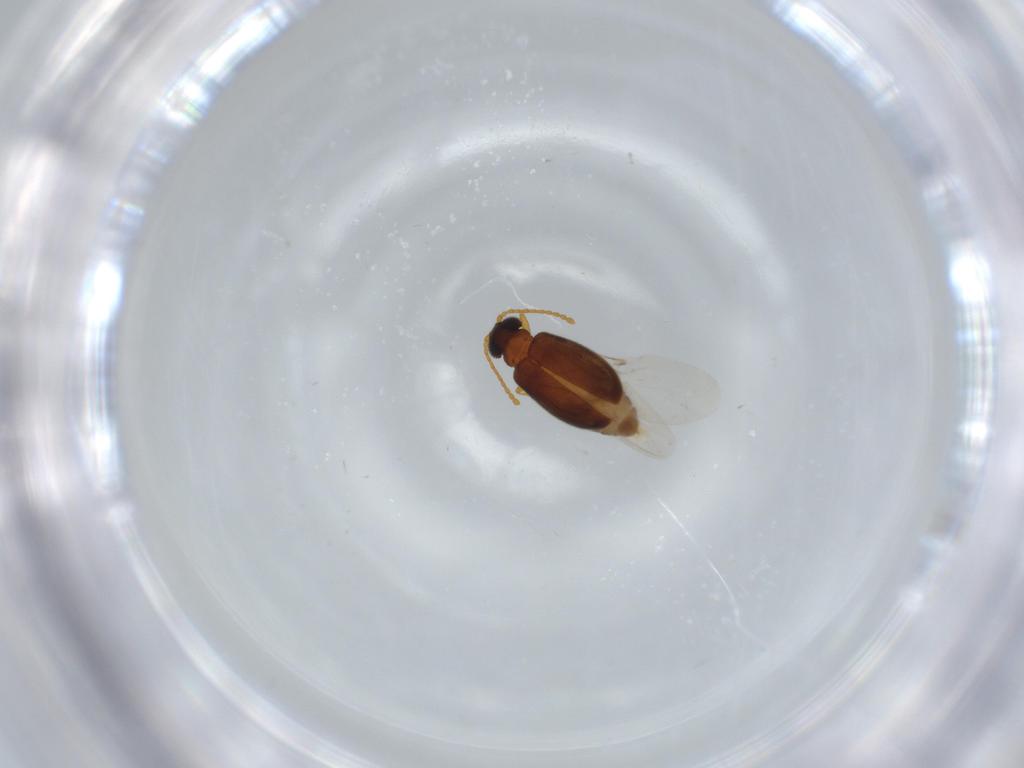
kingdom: Animalia
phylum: Arthropoda
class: Insecta
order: Coleoptera
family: Aderidae
